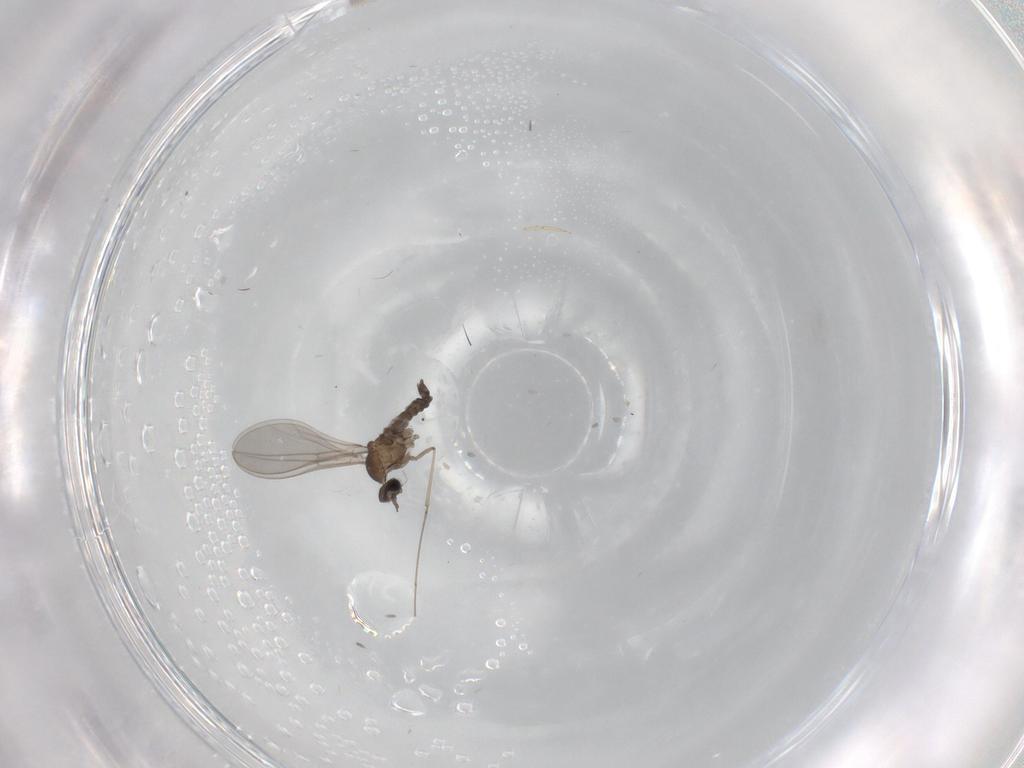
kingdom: Animalia
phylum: Arthropoda
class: Insecta
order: Diptera
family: Cecidomyiidae
